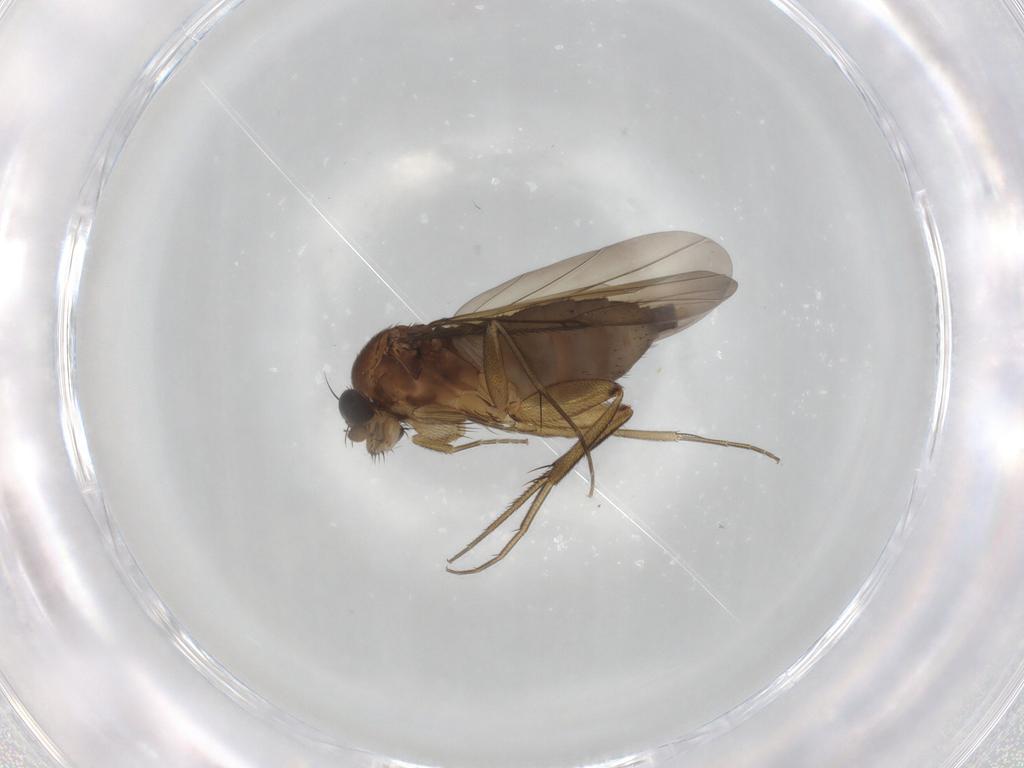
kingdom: Animalia
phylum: Arthropoda
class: Insecta
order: Diptera
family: Phoridae
